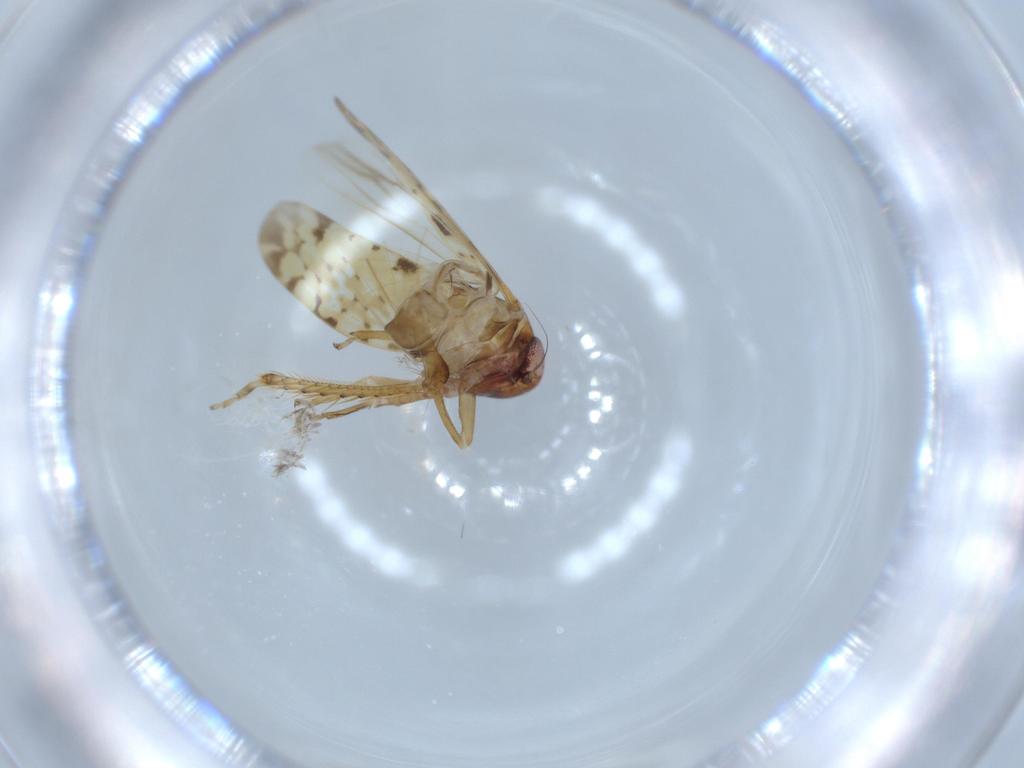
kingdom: Animalia
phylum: Arthropoda
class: Insecta
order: Hemiptera
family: Cicadellidae
